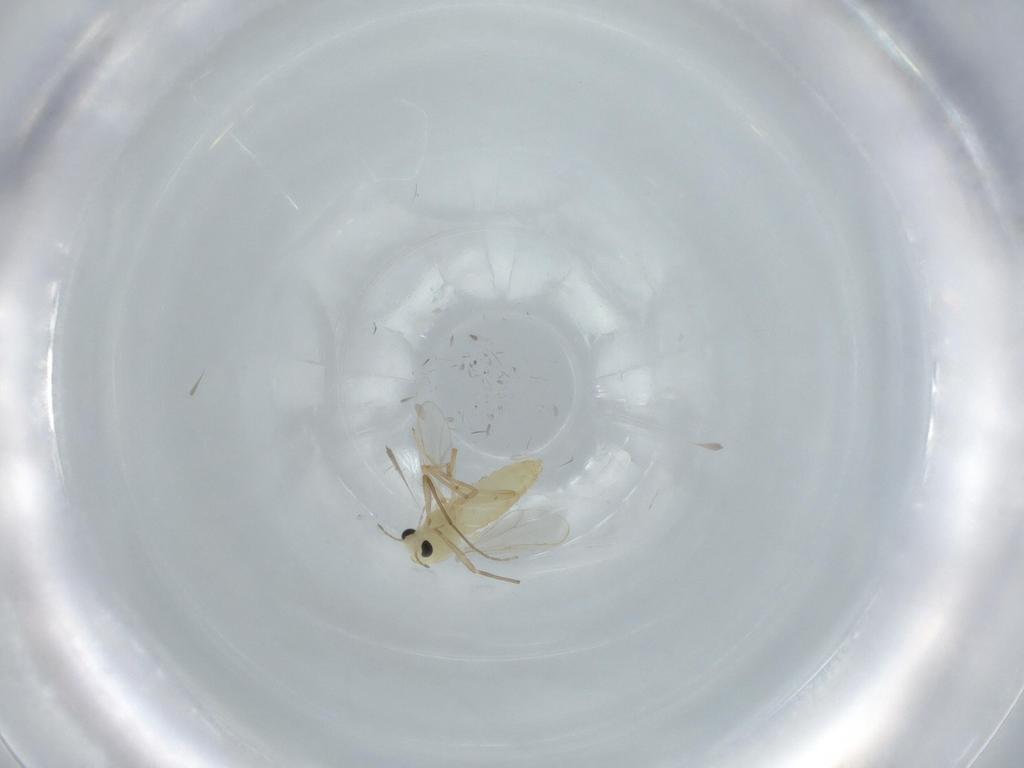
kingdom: Animalia
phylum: Arthropoda
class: Insecta
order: Diptera
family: Chironomidae
